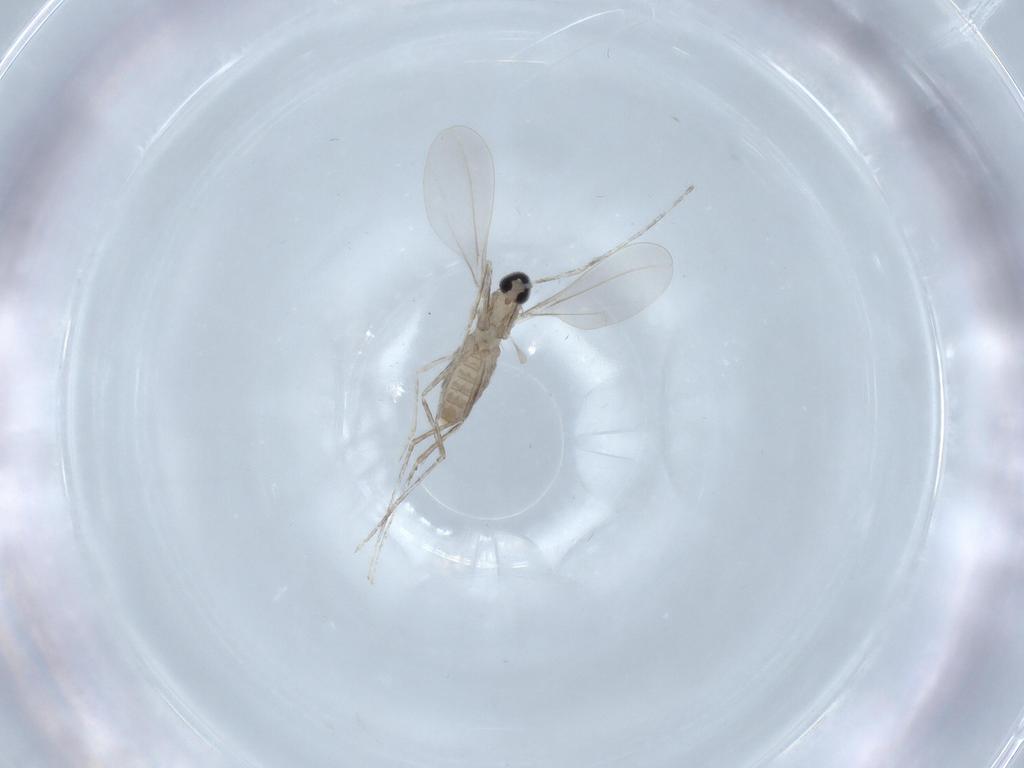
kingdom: Animalia
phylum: Arthropoda
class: Insecta
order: Diptera
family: Cecidomyiidae
